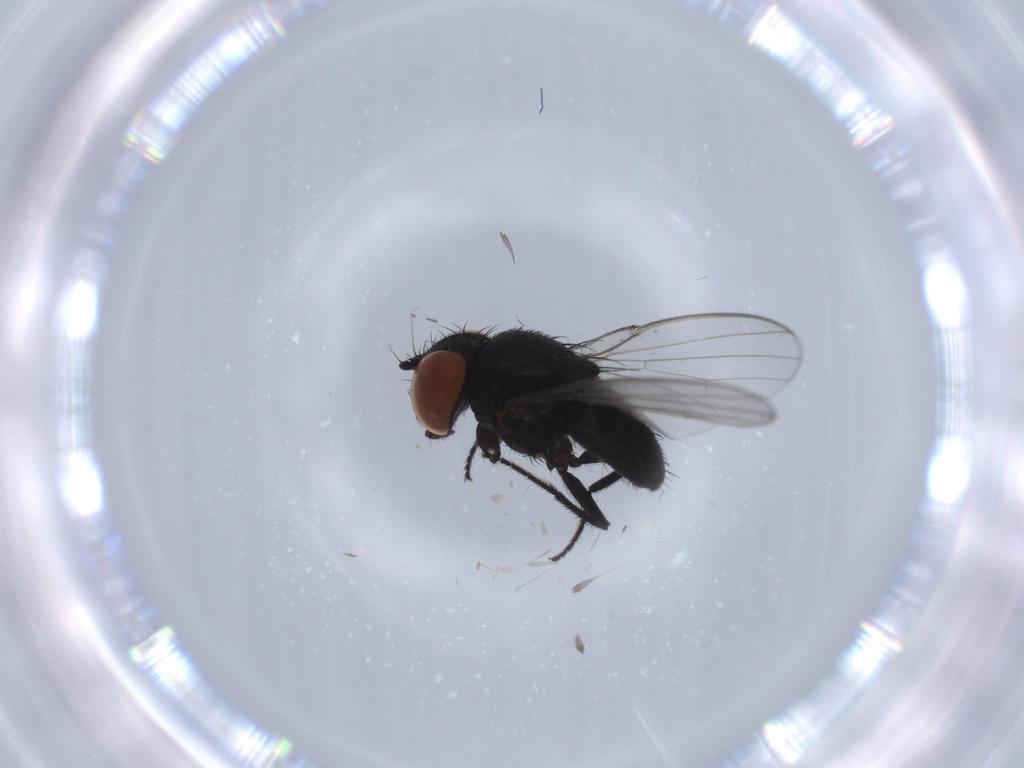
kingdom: Animalia
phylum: Arthropoda
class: Insecta
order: Diptera
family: Milichiidae
